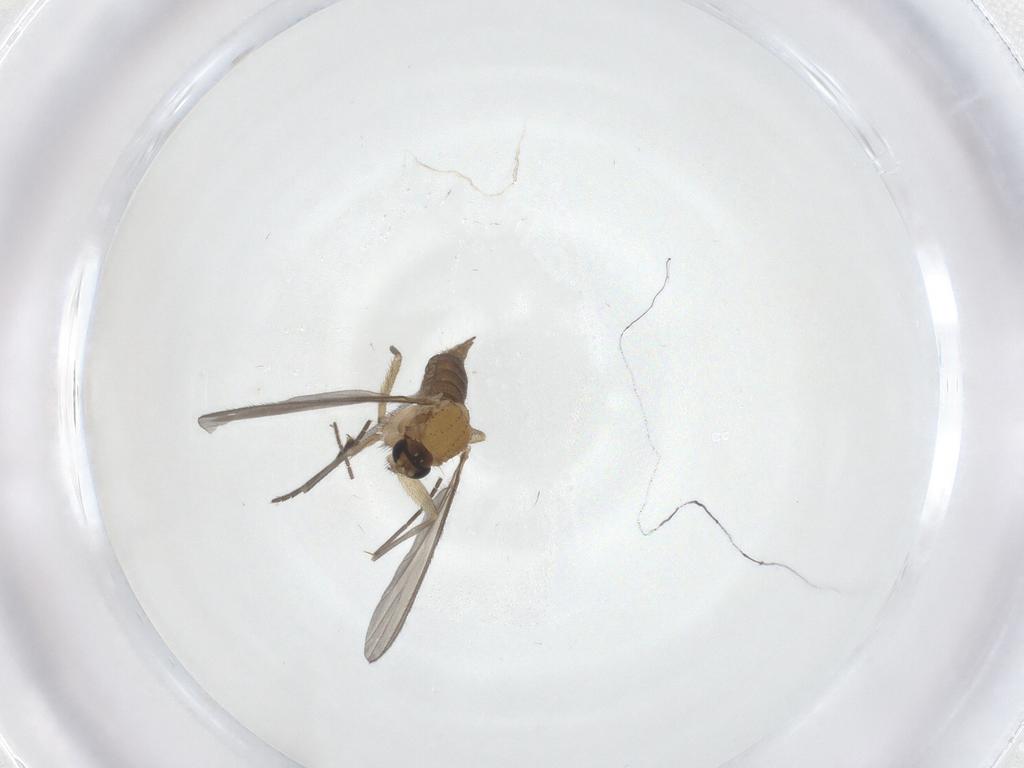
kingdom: Animalia
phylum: Arthropoda
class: Insecta
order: Diptera
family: Sciaridae
